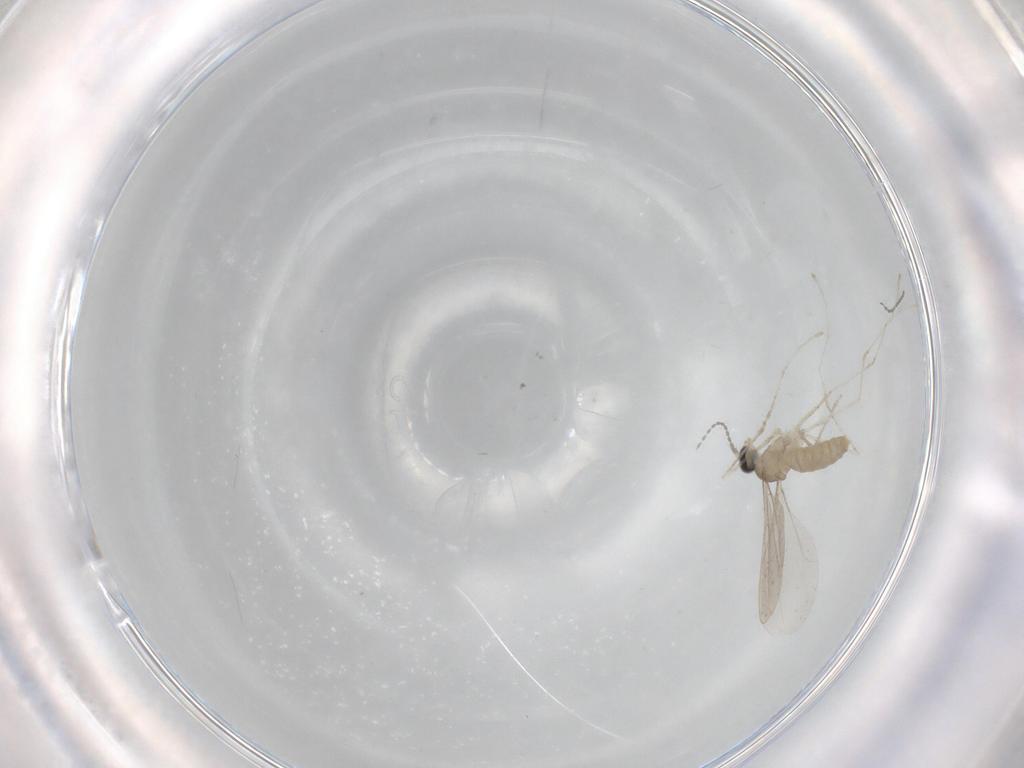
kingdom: Animalia
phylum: Arthropoda
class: Insecta
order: Diptera
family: Cecidomyiidae
